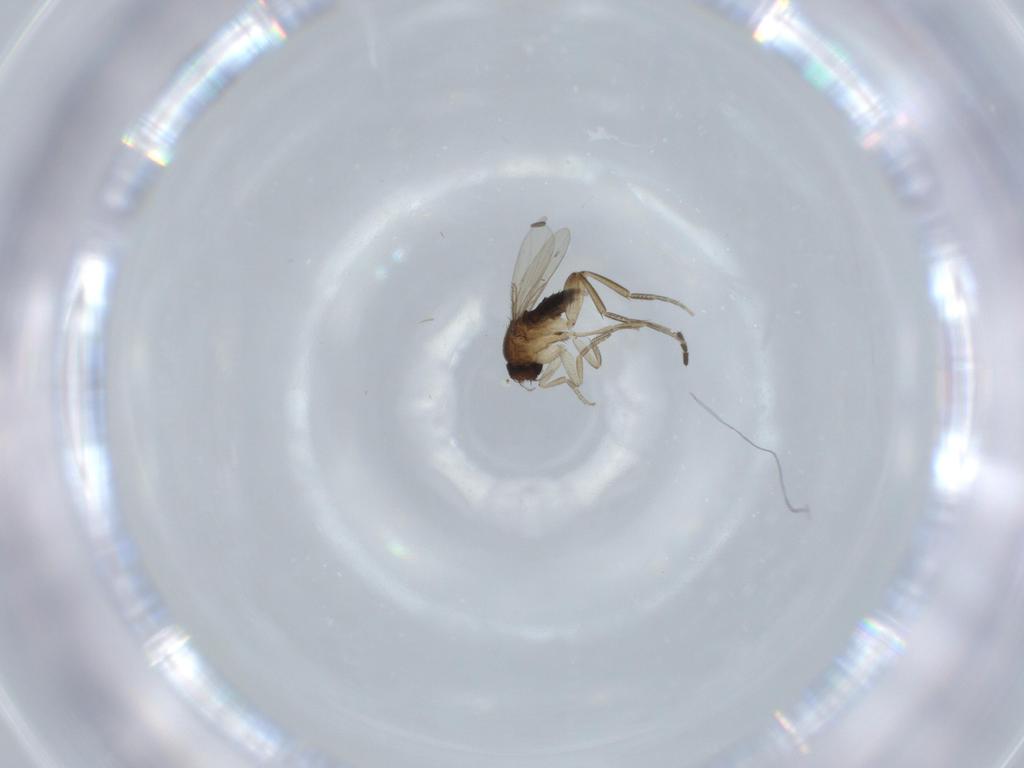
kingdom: Animalia
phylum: Arthropoda
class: Insecta
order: Diptera
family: Phoridae
